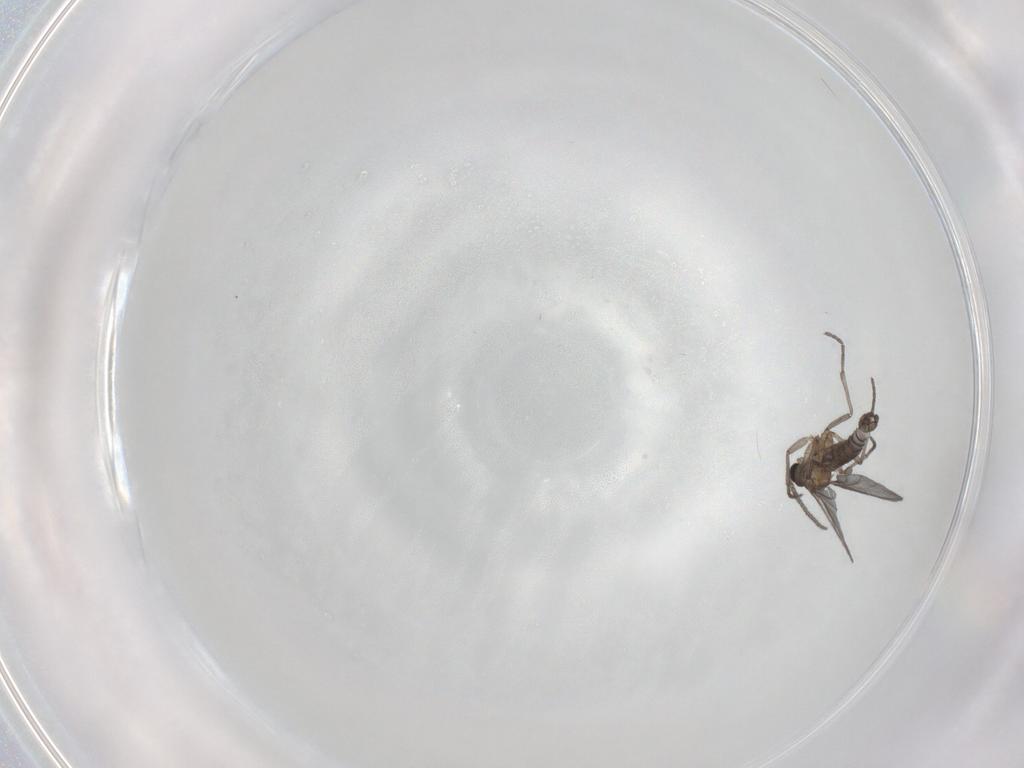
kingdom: Animalia
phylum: Arthropoda
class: Insecta
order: Diptera
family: Sciaridae
